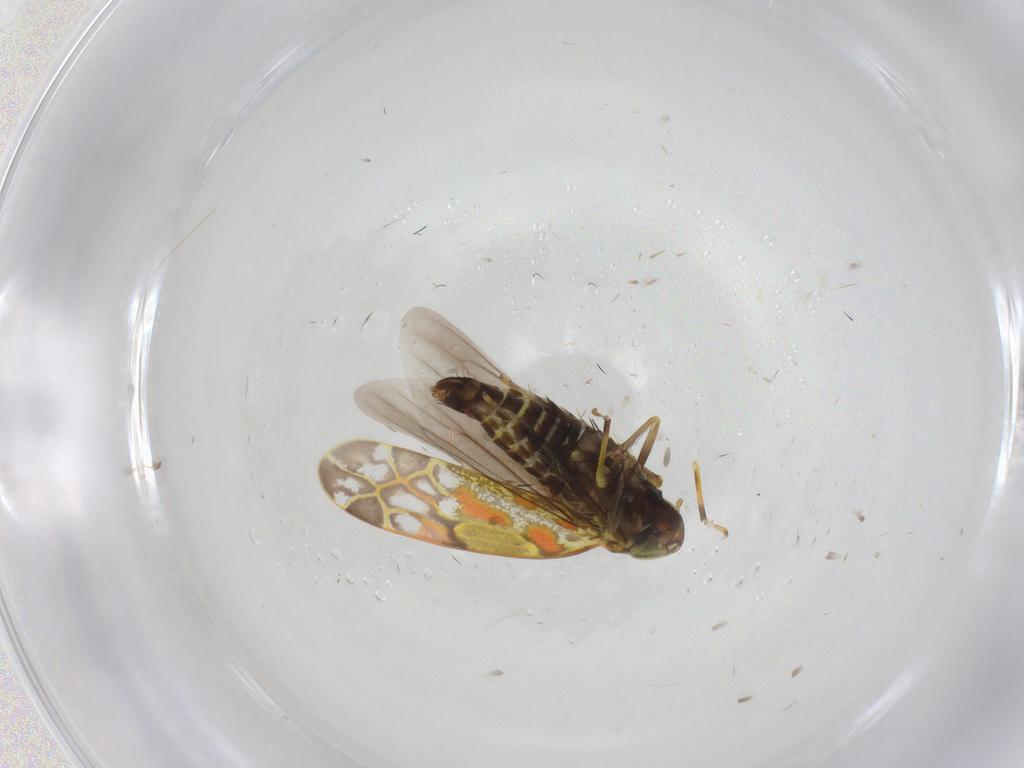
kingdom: Animalia
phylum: Arthropoda
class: Insecta
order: Hemiptera
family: Cicadellidae
